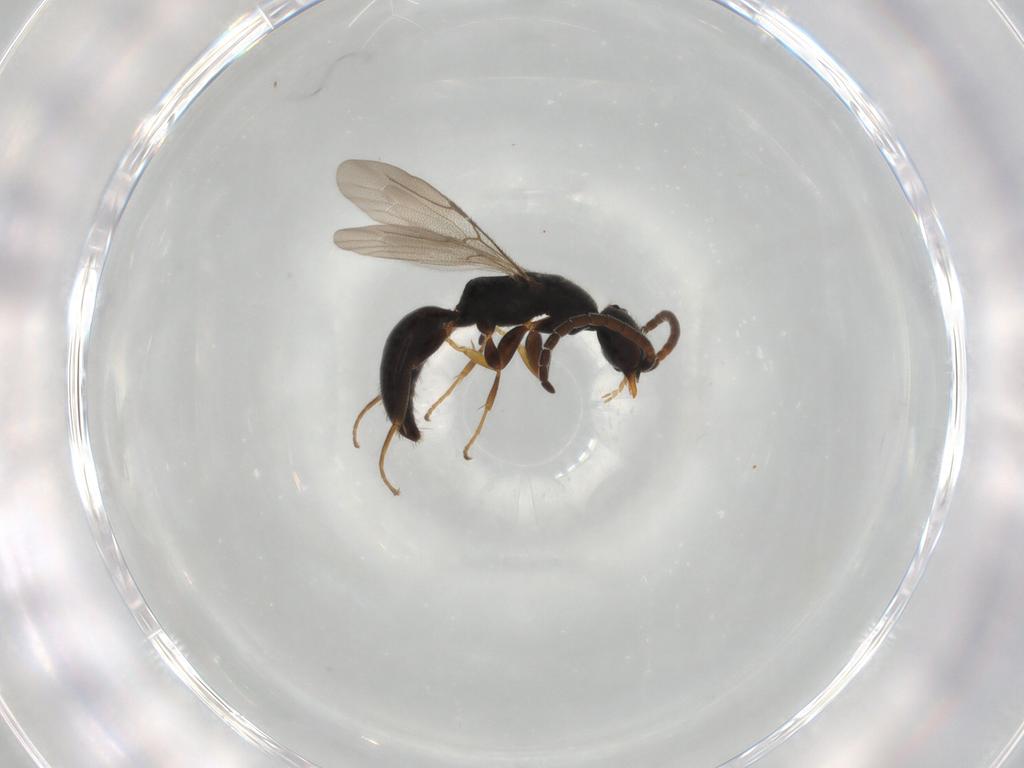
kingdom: Animalia
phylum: Arthropoda
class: Insecta
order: Hymenoptera
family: Bethylidae
